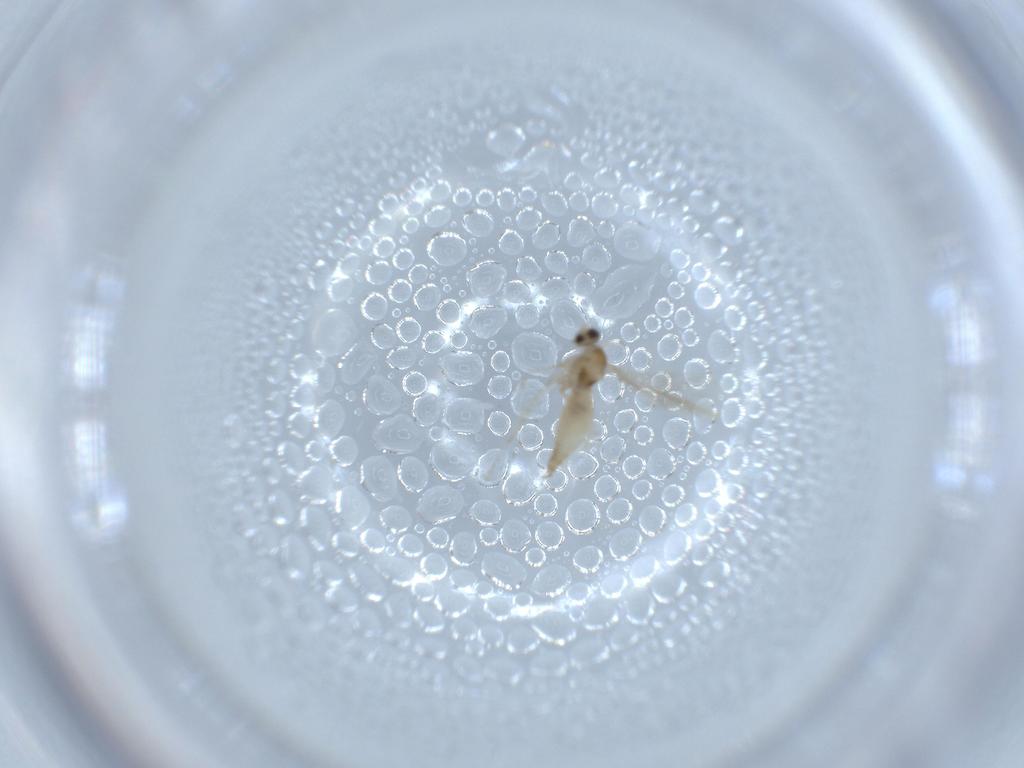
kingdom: Animalia
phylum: Arthropoda
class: Insecta
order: Diptera
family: Cecidomyiidae
